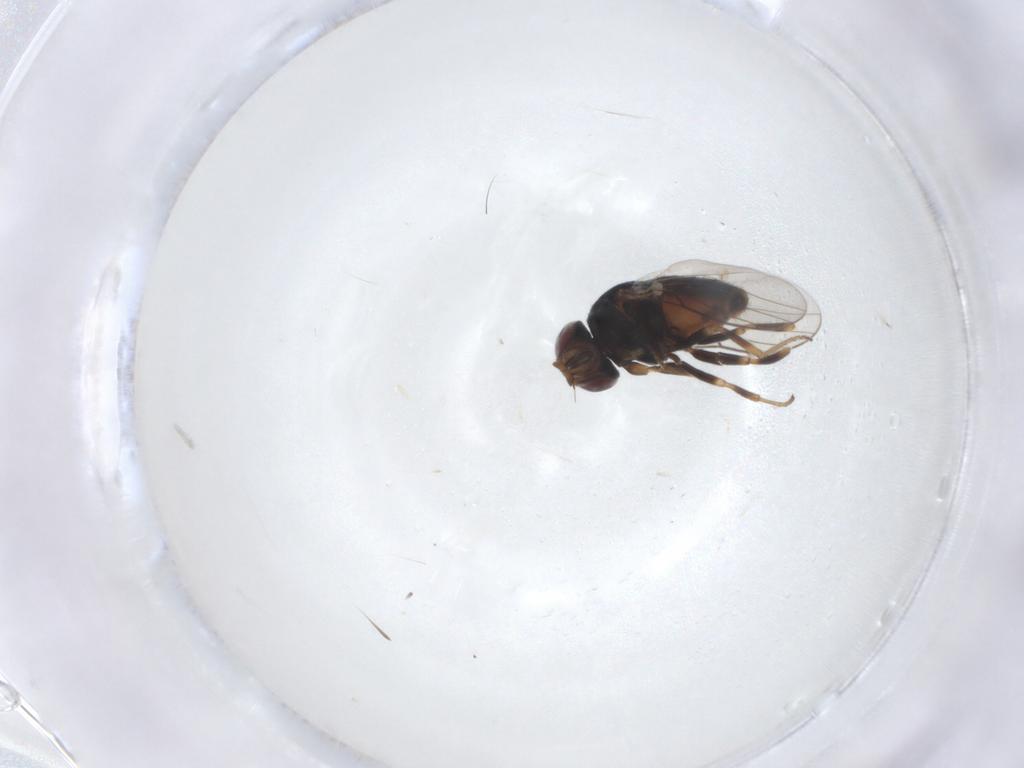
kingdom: Animalia
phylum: Arthropoda
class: Insecta
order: Diptera
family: Chloropidae
